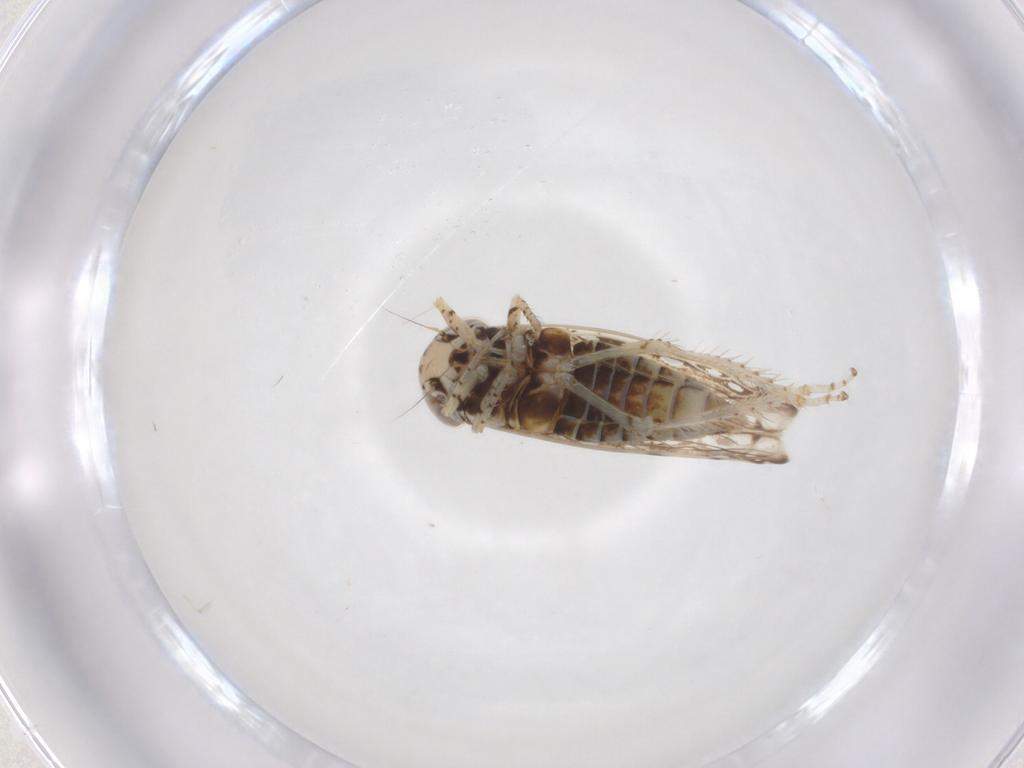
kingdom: Animalia
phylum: Arthropoda
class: Insecta
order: Hemiptera
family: Cicadellidae
